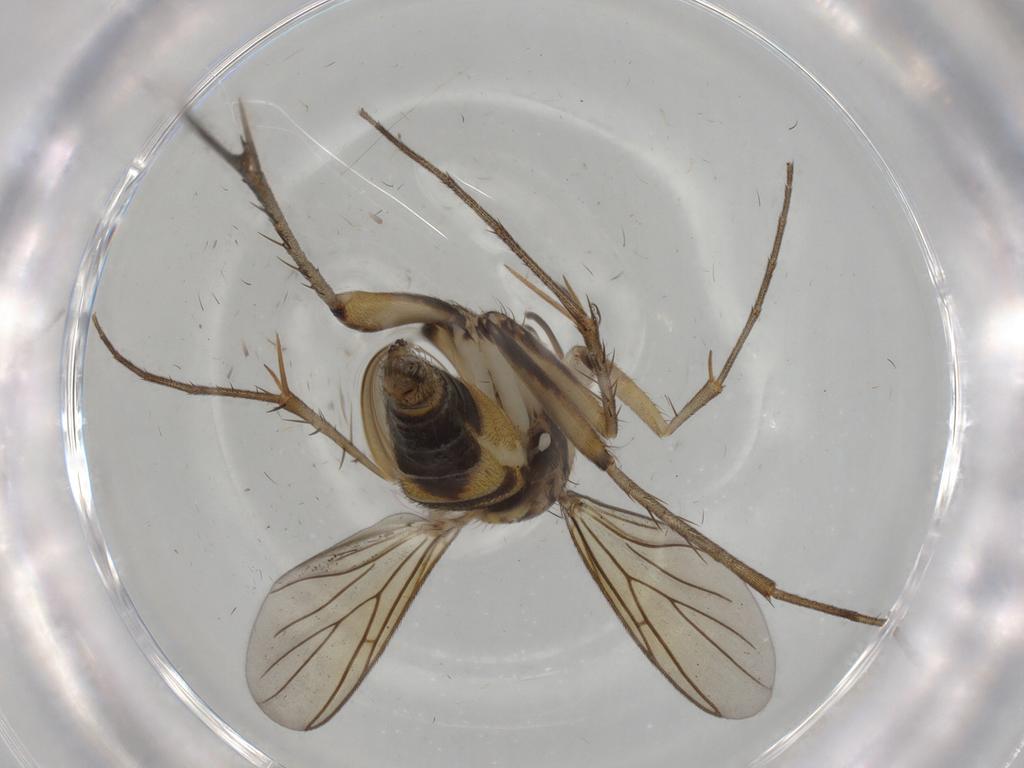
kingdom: Animalia
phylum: Arthropoda
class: Insecta
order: Diptera
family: Cecidomyiidae
